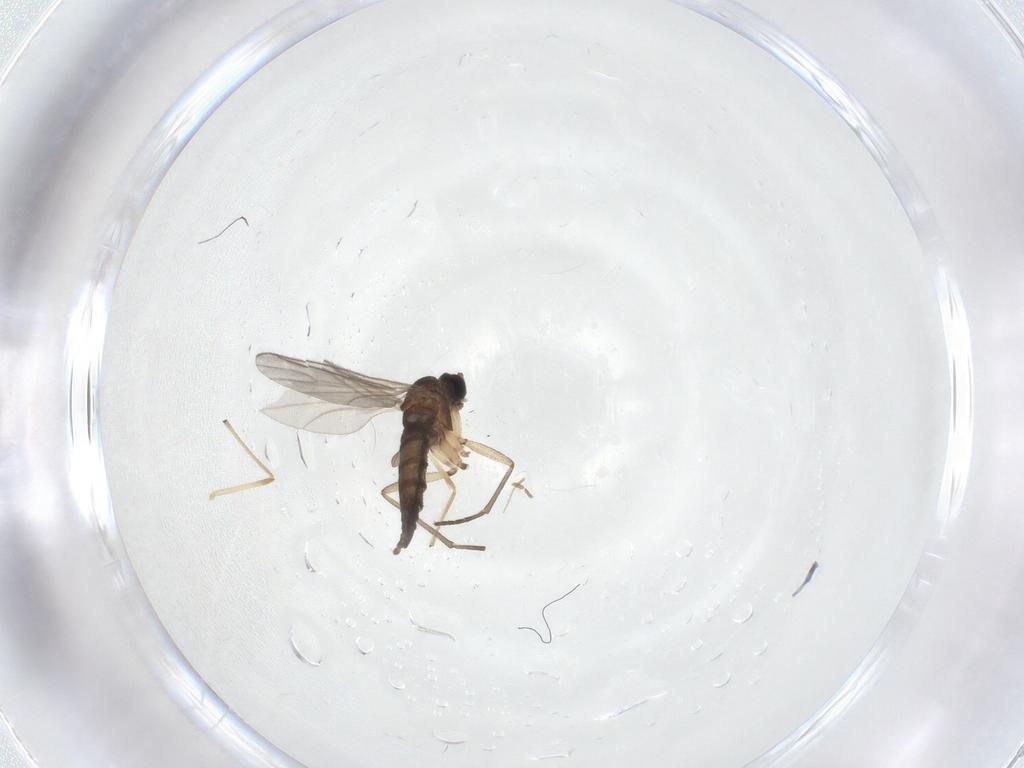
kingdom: Animalia
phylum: Arthropoda
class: Insecta
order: Diptera
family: Sciaridae
